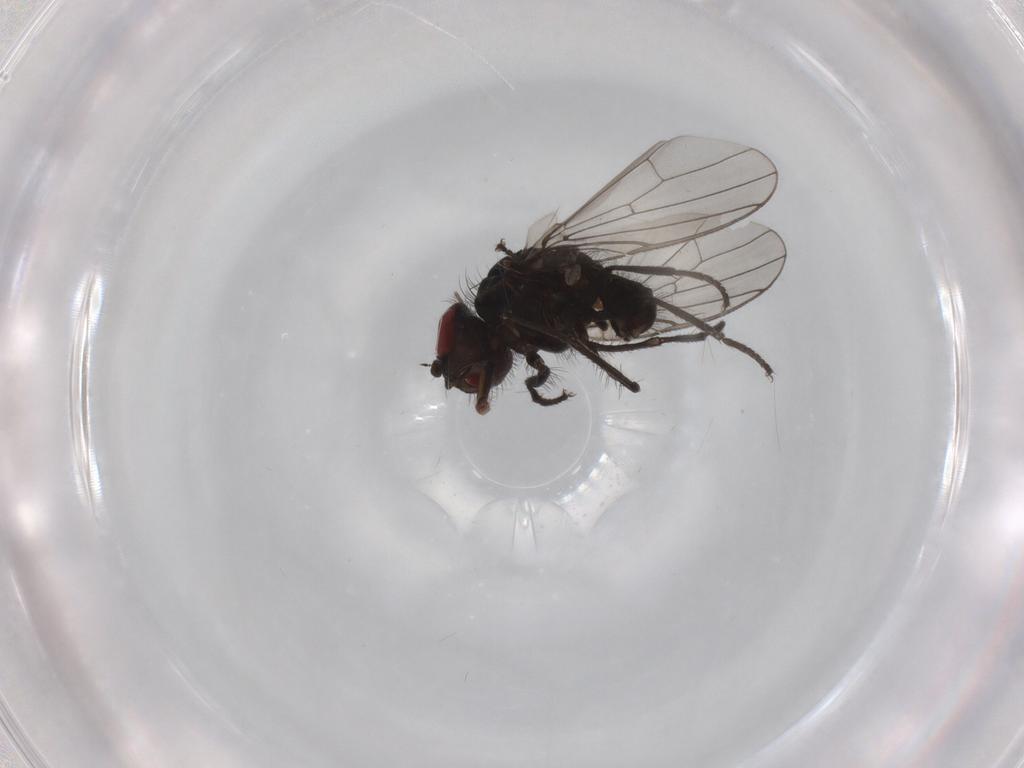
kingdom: Animalia
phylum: Arthropoda
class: Insecta
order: Diptera
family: Anthomyiidae
